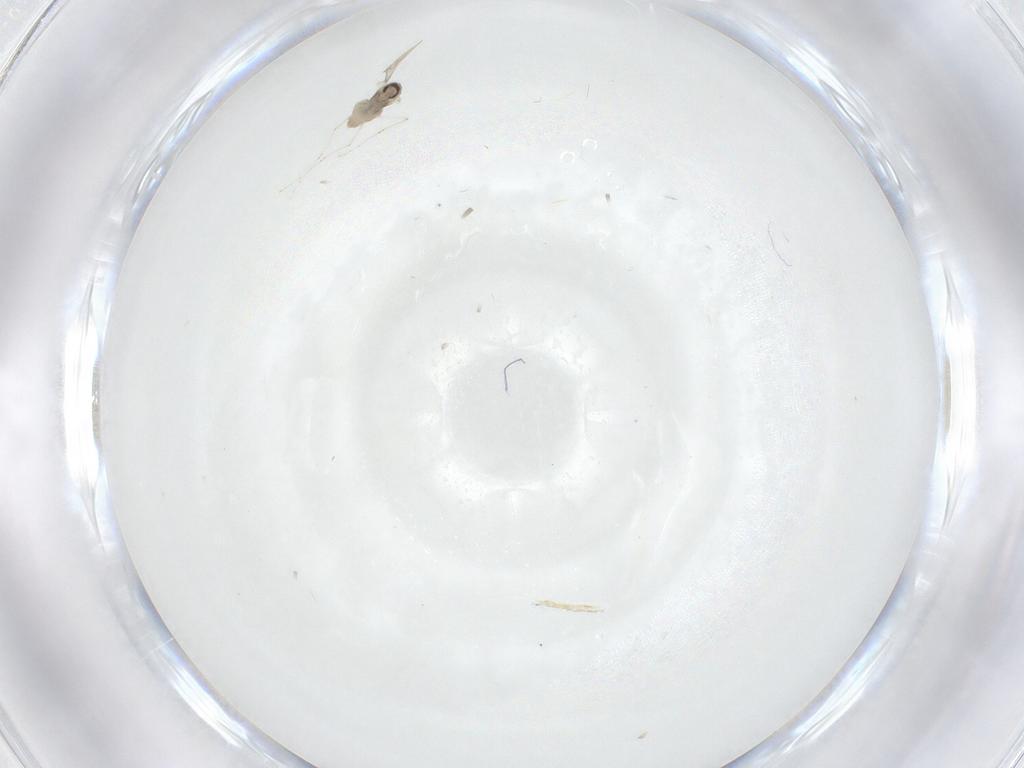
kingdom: Animalia
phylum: Arthropoda
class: Insecta
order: Diptera
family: Cecidomyiidae
